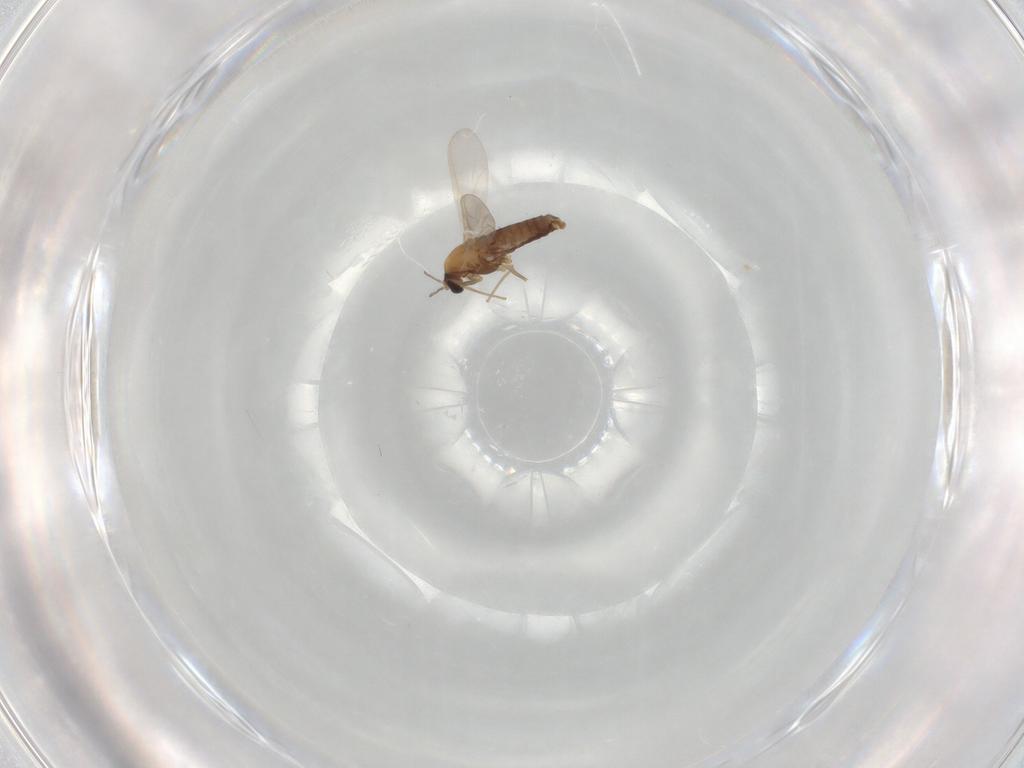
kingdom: Animalia
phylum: Arthropoda
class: Insecta
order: Diptera
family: Chironomidae
